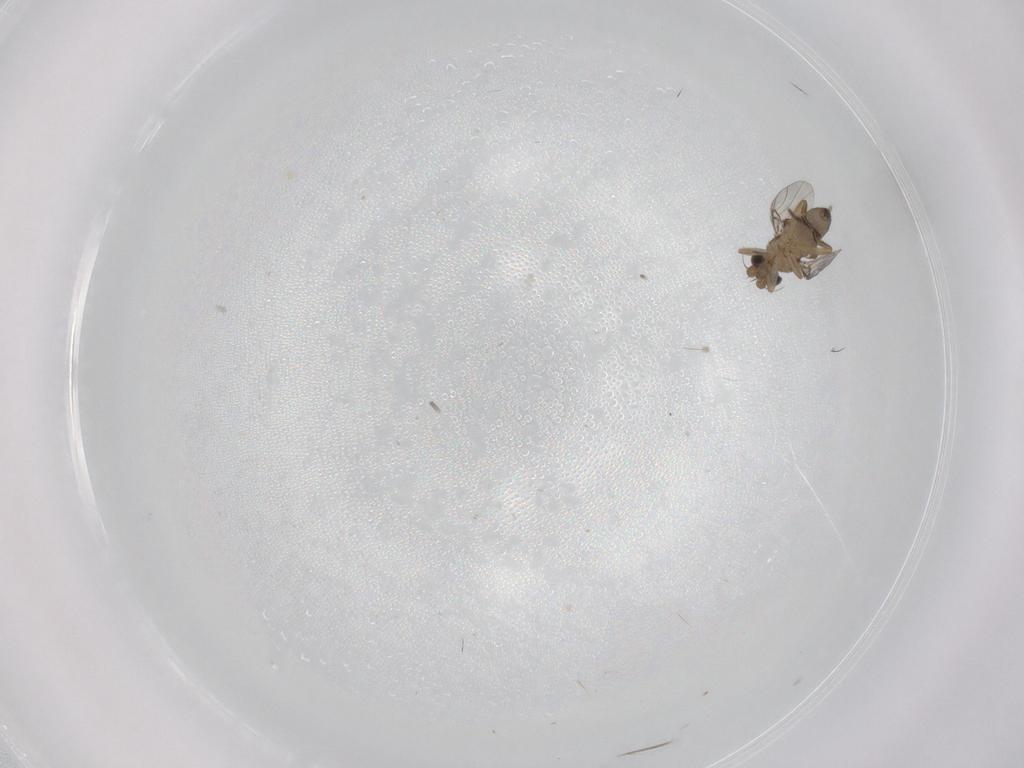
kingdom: Animalia
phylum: Arthropoda
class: Insecta
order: Diptera
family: Phoridae
